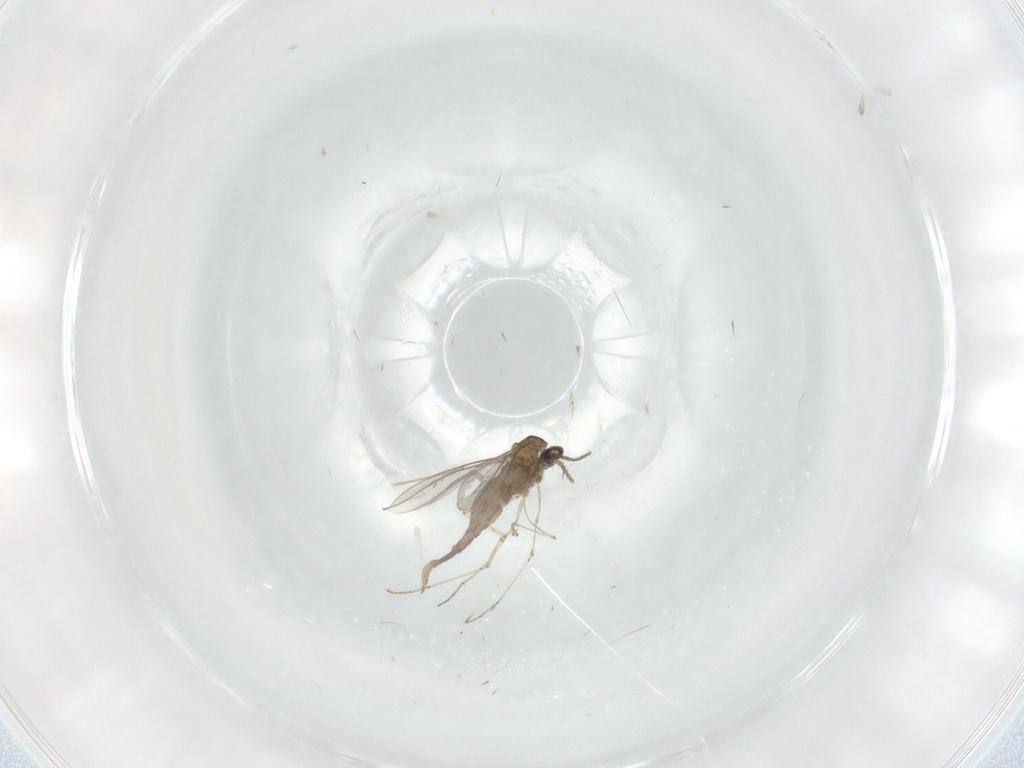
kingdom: Animalia
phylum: Arthropoda
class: Insecta
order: Diptera
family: Cecidomyiidae
